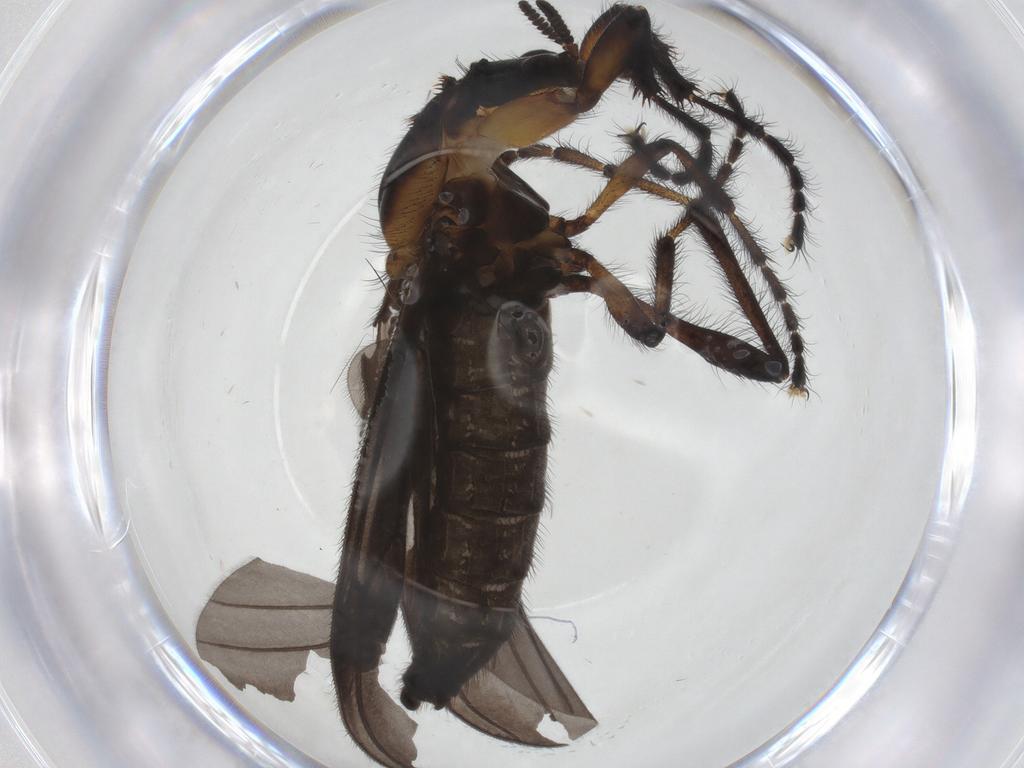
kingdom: Animalia
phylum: Arthropoda
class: Insecta
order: Diptera
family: Bibionidae
